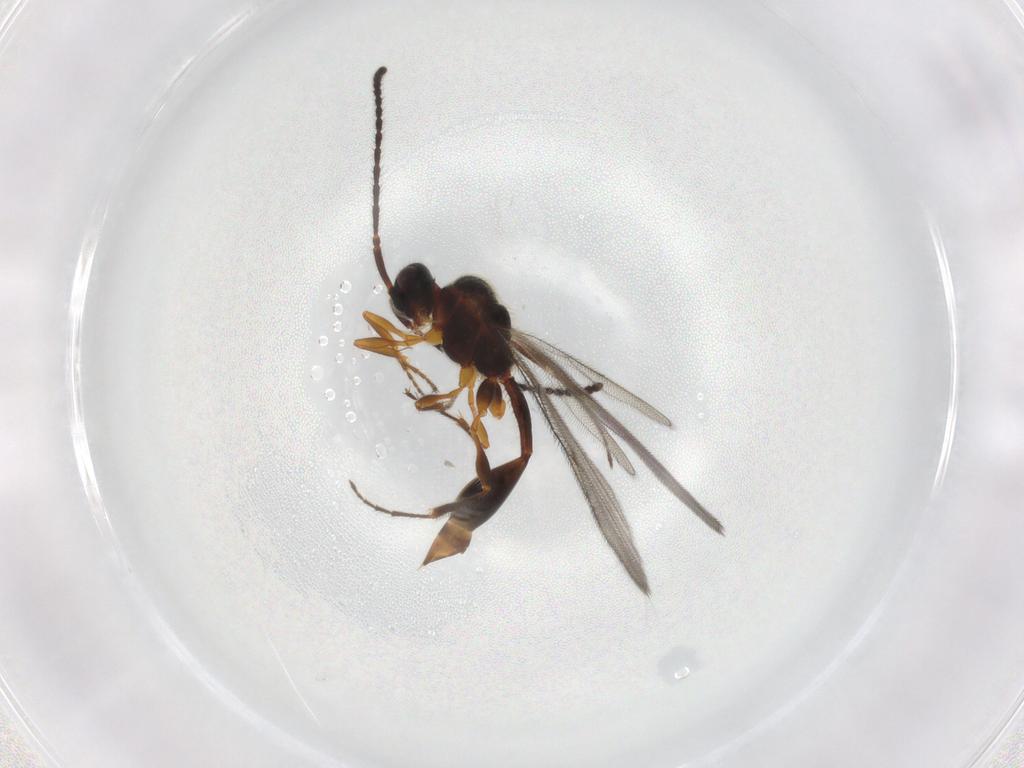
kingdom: Animalia
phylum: Arthropoda
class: Insecta
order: Hymenoptera
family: Diapriidae
